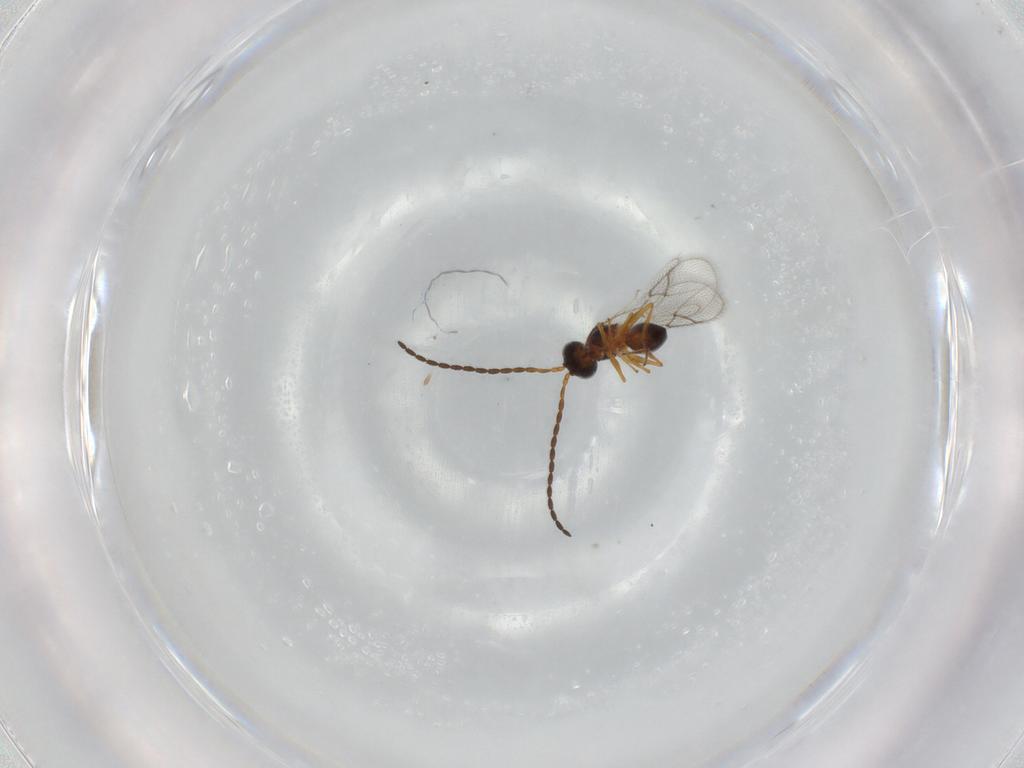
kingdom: Animalia
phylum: Arthropoda
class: Insecta
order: Hymenoptera
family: Figitidae
